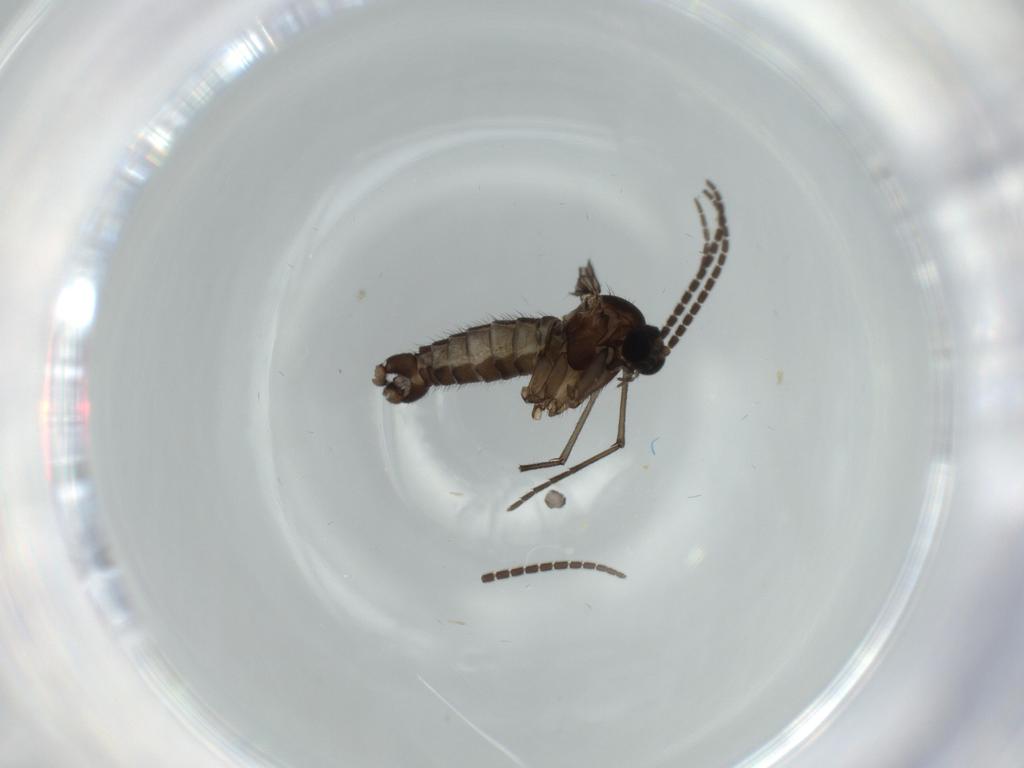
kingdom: Animalia
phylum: Arthropoda
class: Insecta
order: Diptera
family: Sciaridae
